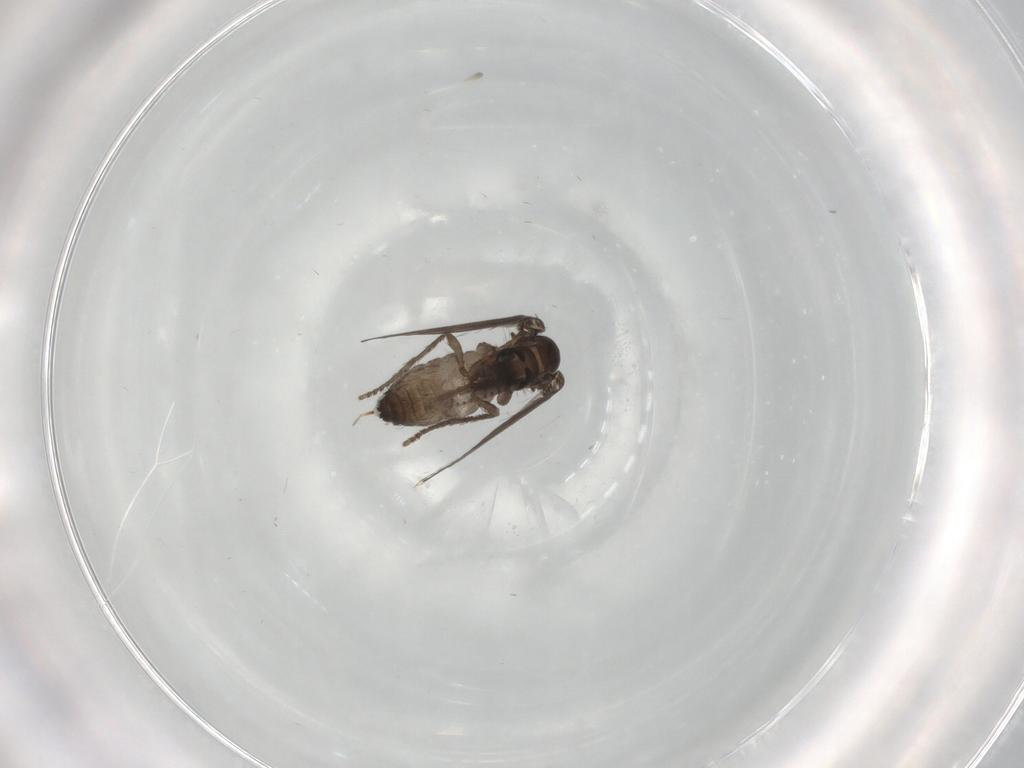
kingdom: Animalia
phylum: Arthropoda
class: Insecta
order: Diptera
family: Psychodidae
